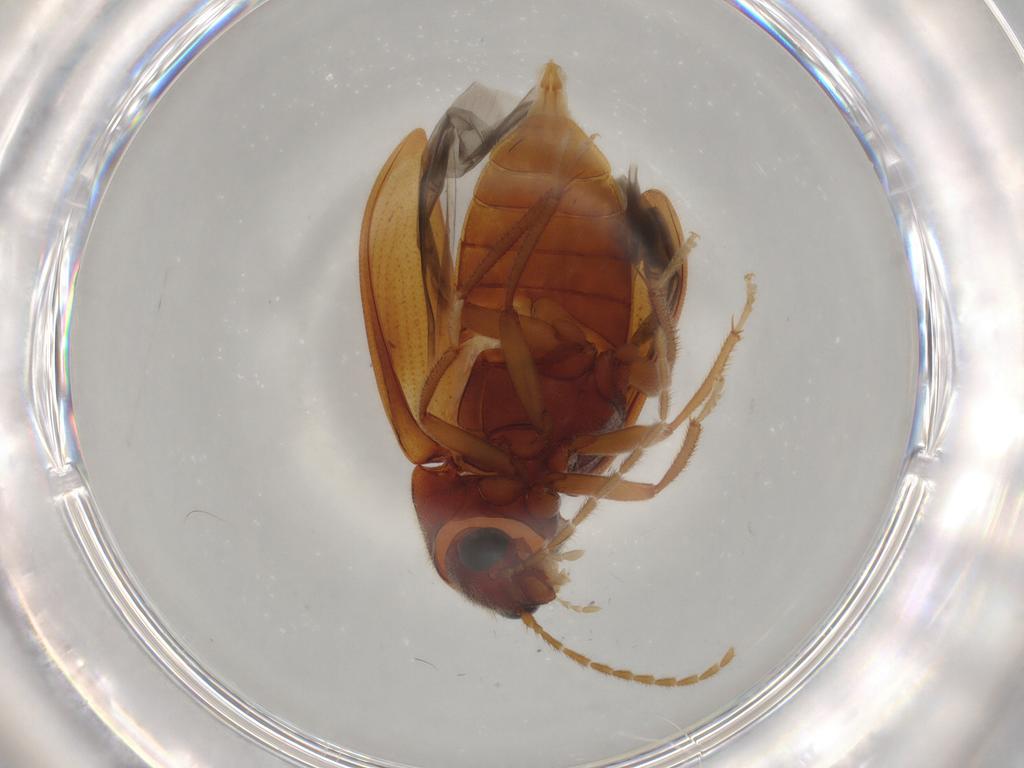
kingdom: Animalia
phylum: Arthropoda
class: Insecta
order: Coleoptera
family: Ptilodactylidae
